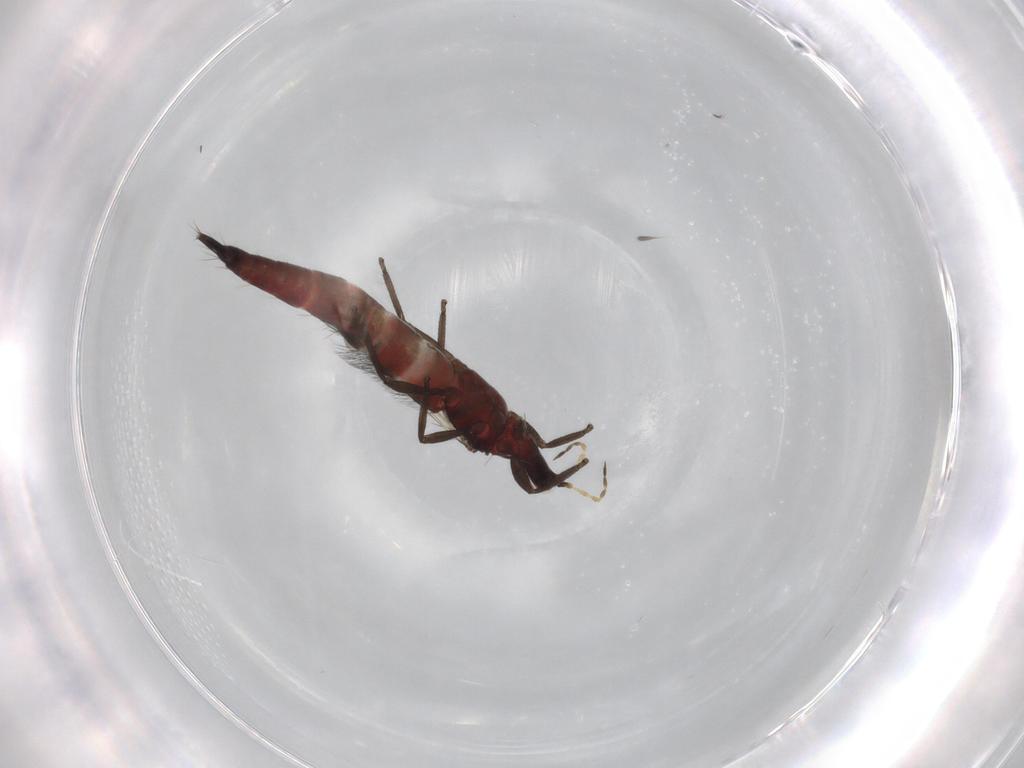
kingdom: Animalia
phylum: Arthropoda
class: Insecta
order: Thysanoptera
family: Phlaeothripidae
